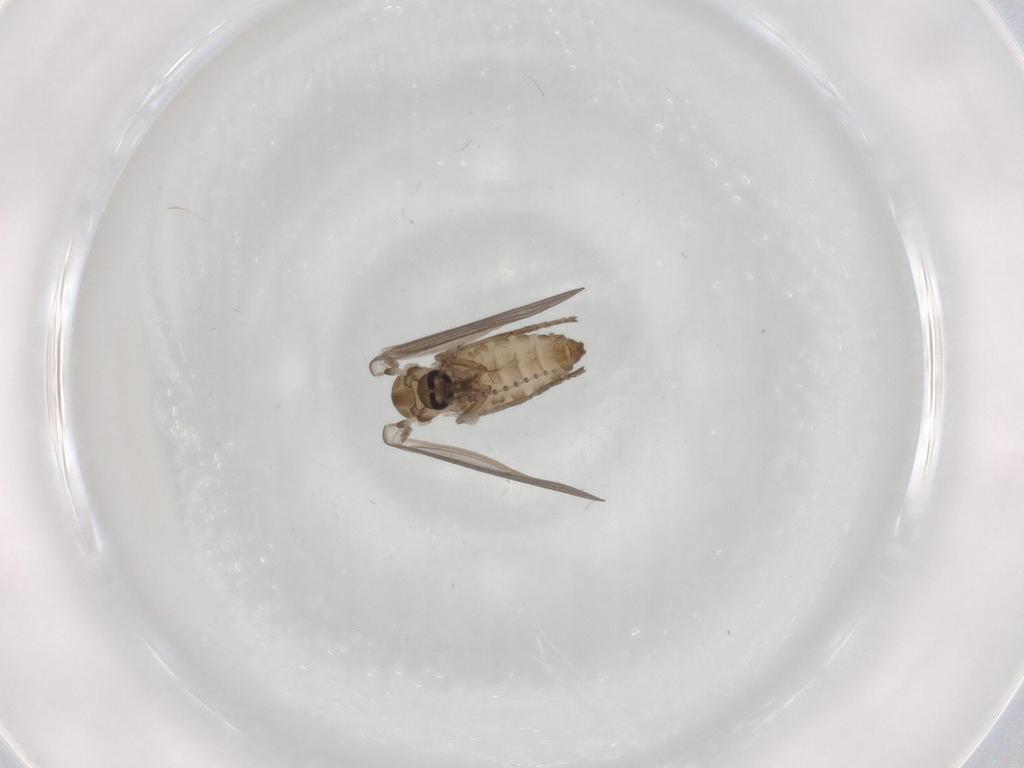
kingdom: Animalia
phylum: Arthropoda
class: Insecta
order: Diptera
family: Psychodidae
